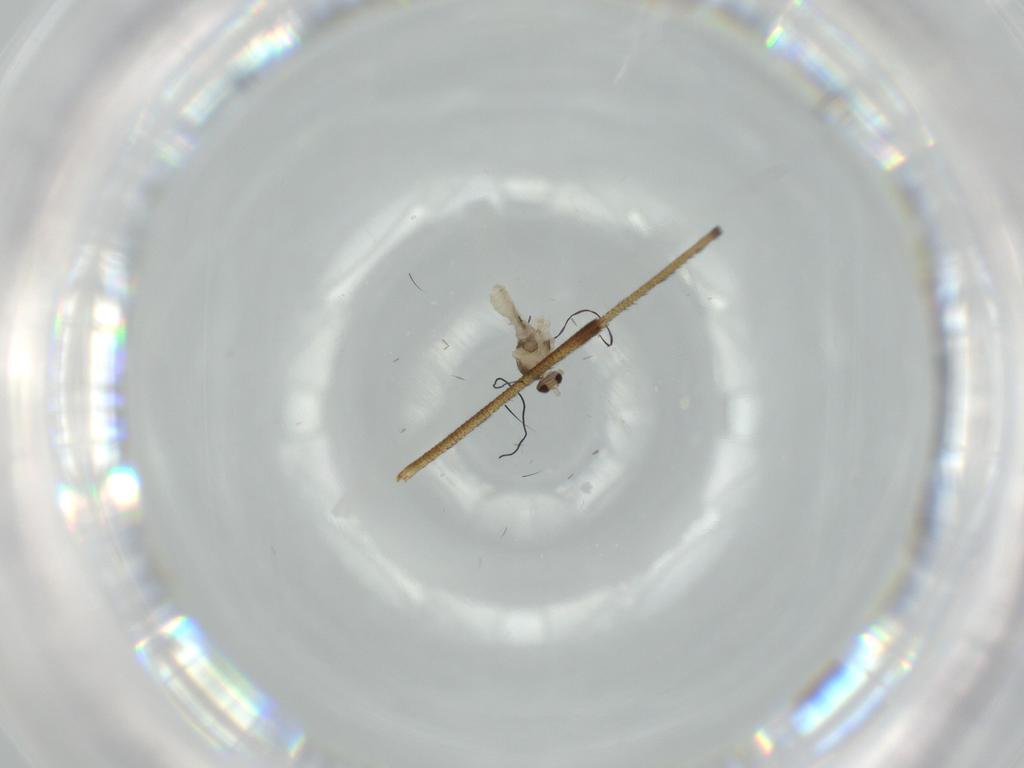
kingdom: Animalia
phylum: Arthropoda
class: Insecta
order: Diptera
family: Cecidomyiidae
